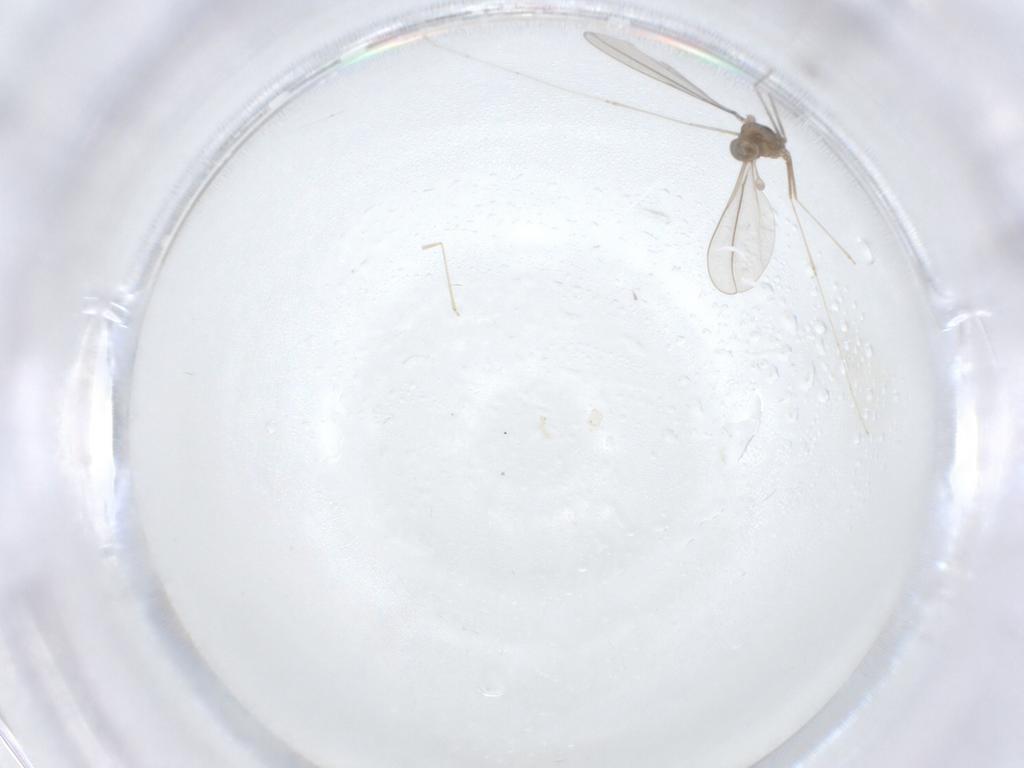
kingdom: Animalia
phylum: Arthropoda
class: Insecta
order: Diptera
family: Cecidomyiidae
